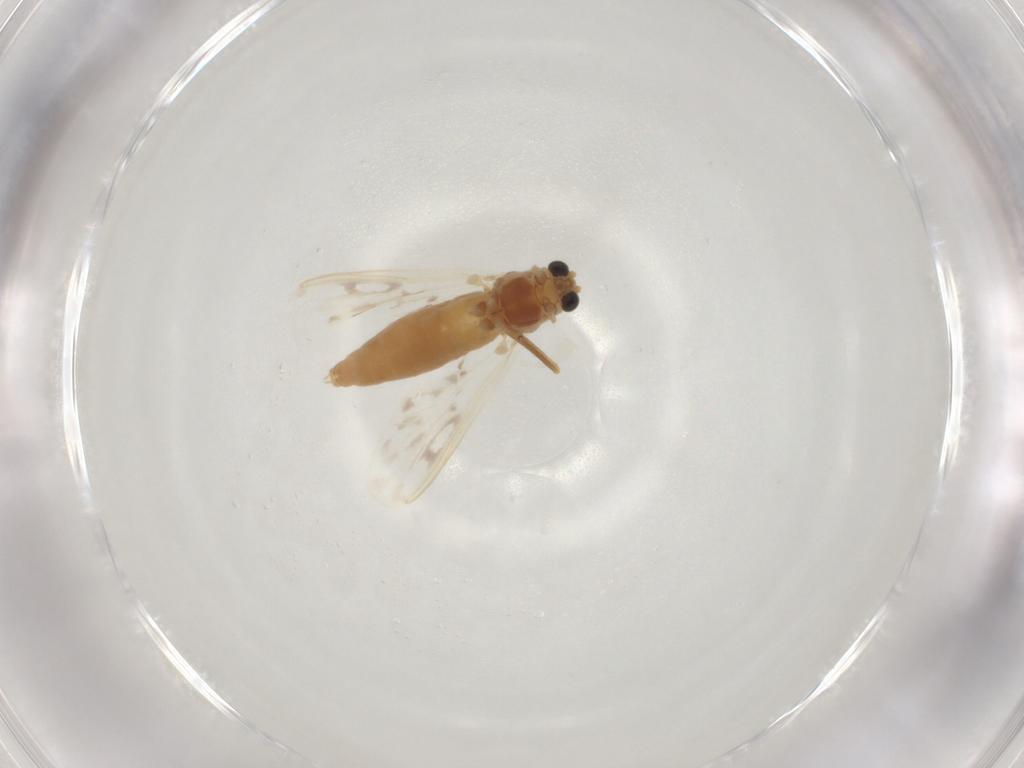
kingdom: Animalia
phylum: Arthropoda
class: Insecta
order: Diptera
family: Chironomidae
